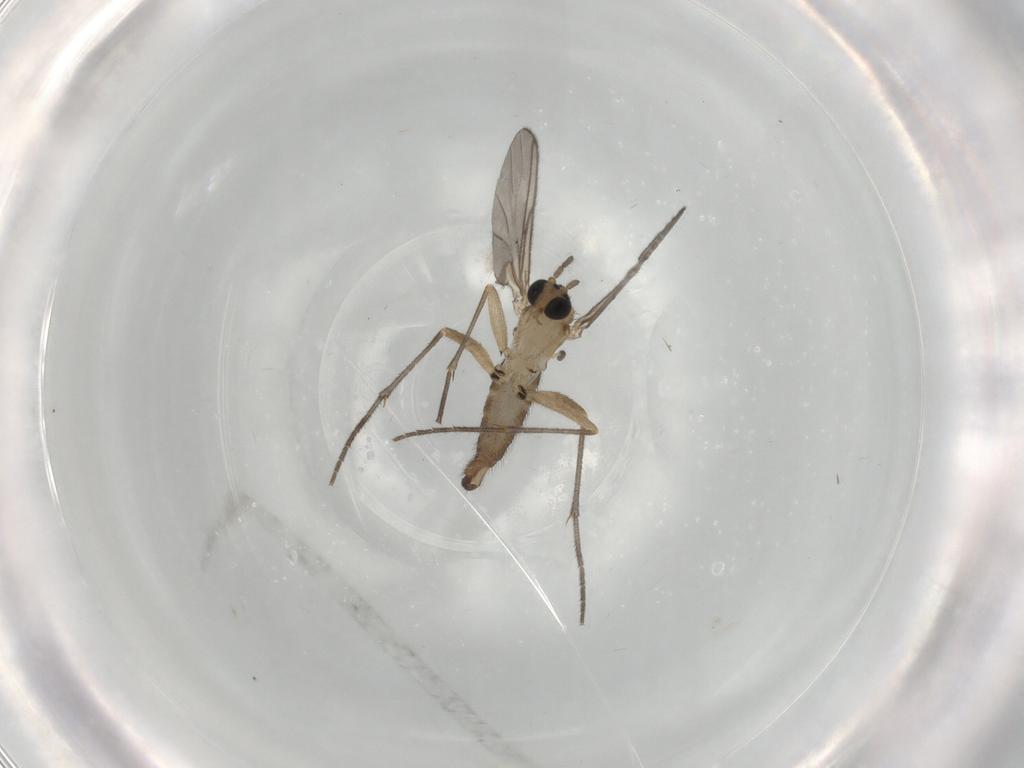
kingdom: Animalia
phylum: Arthropoda
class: Insecta
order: Diptera
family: Sciaridae
